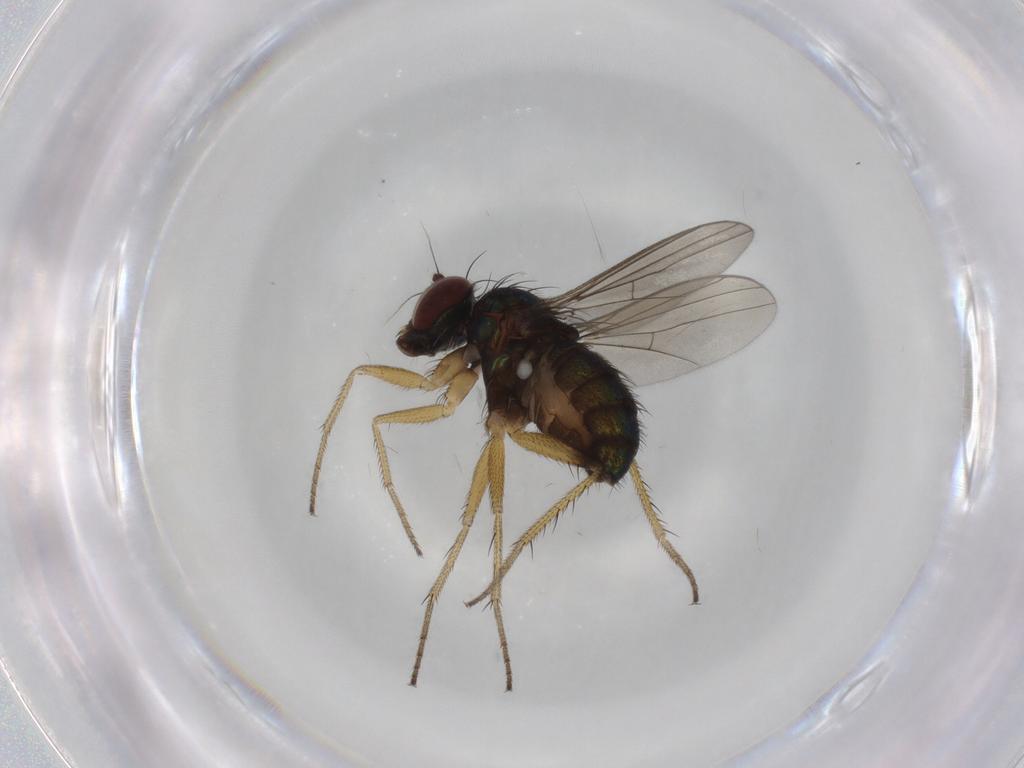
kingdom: Animalia
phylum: Arthropoda
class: Insecta
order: Diptera
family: Dolichopodidae
